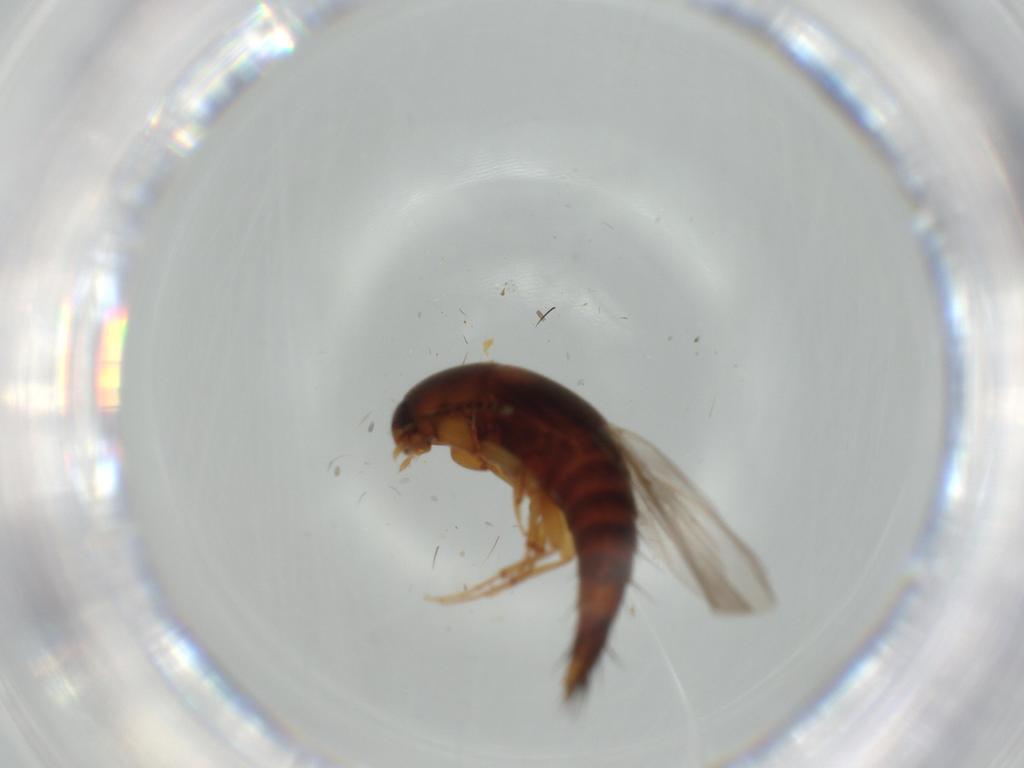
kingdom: Animalia
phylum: Arthropoda
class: Insecta
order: Coleoptera
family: Staphylinidae
